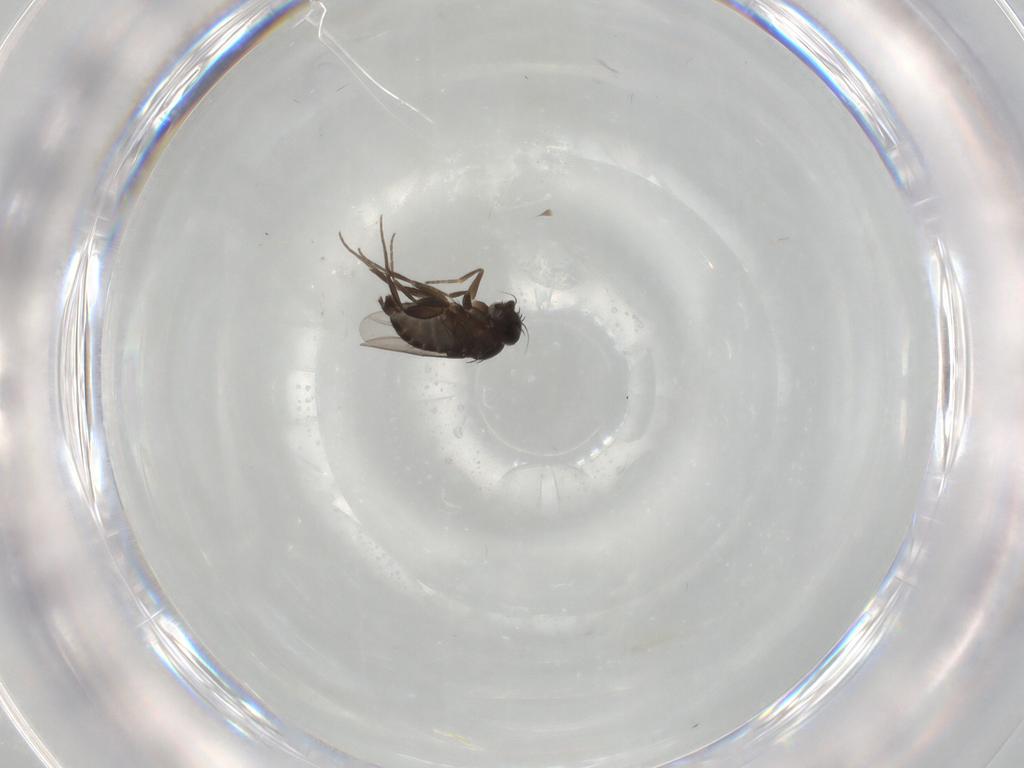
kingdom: Animalia
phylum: Arthropoda
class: Insecta
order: Diptera
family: Phoridae
